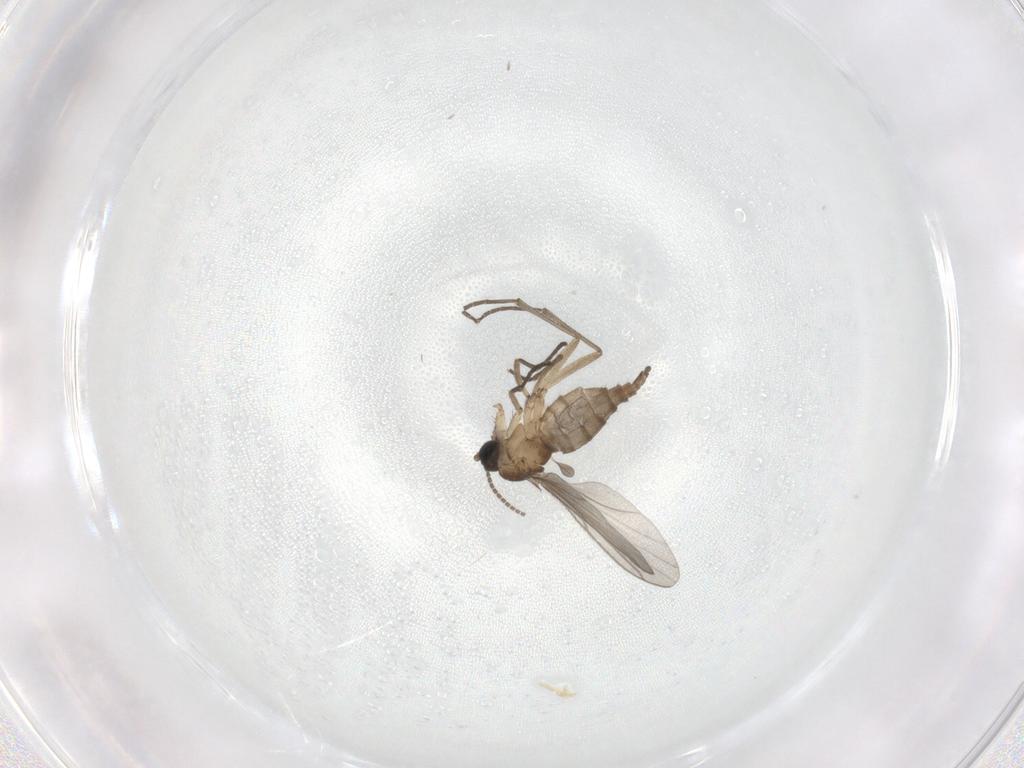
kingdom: Animalia
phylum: Arthropoda
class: Insecta
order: Diptera
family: Sciaridae
